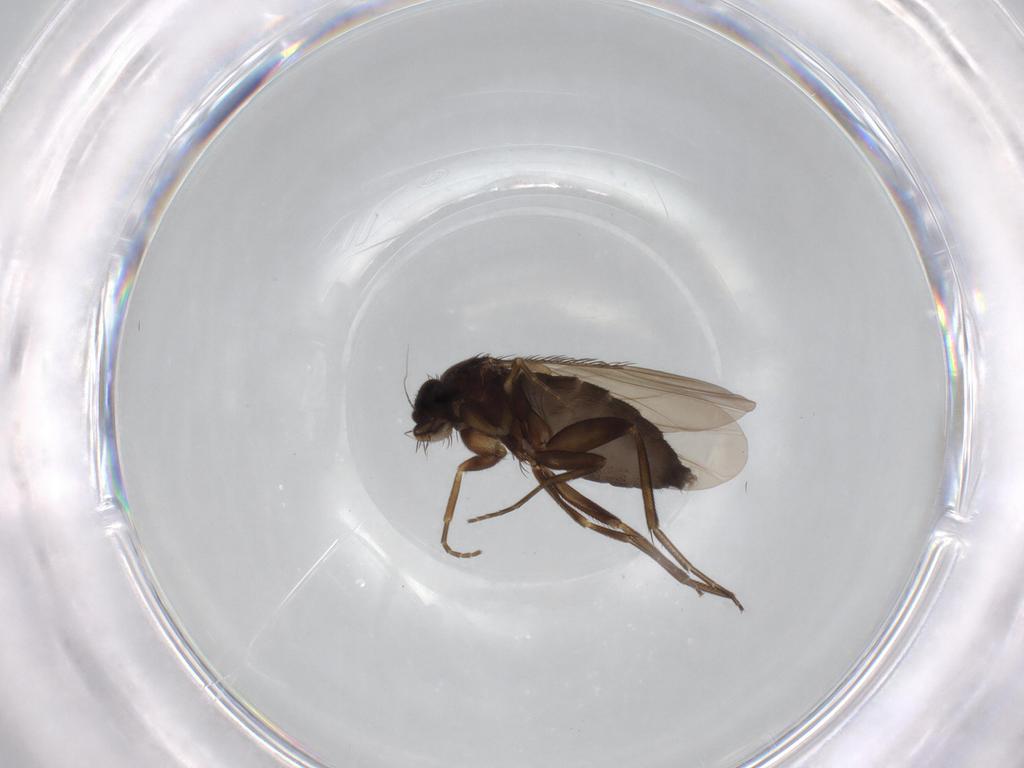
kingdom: Animalia
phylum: Arthropoda
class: Insecta
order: Diptera
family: Phoridae
